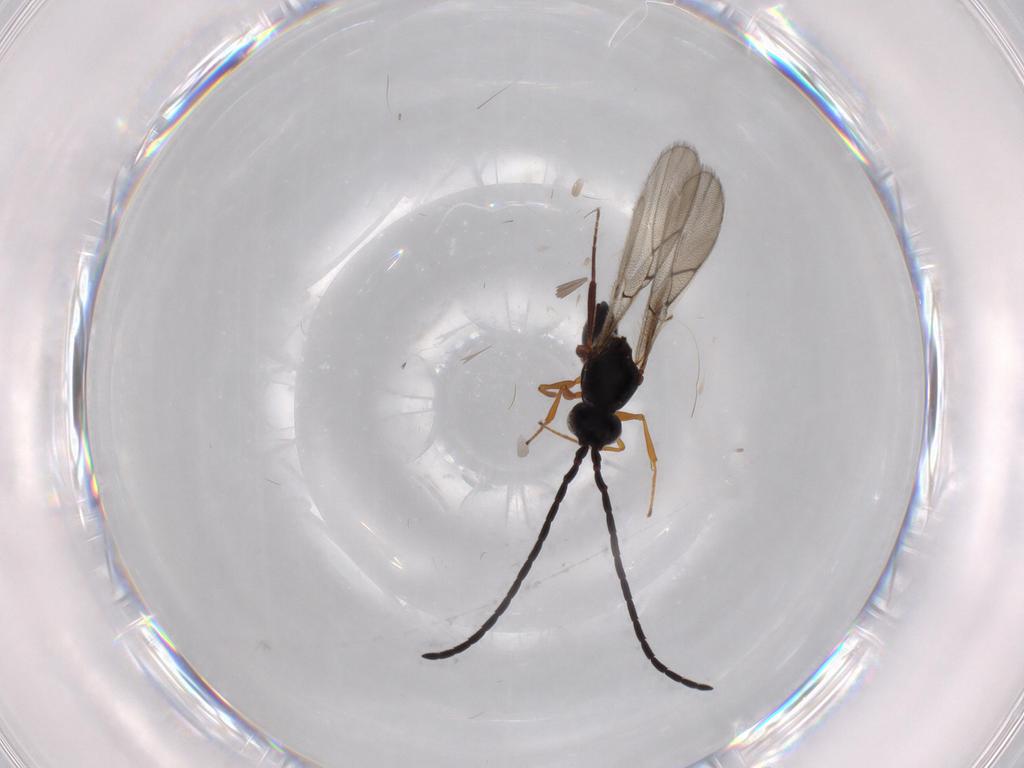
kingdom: Animalia
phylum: Arthropoda
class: Insecta
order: Hymenoptera
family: Figitidae
